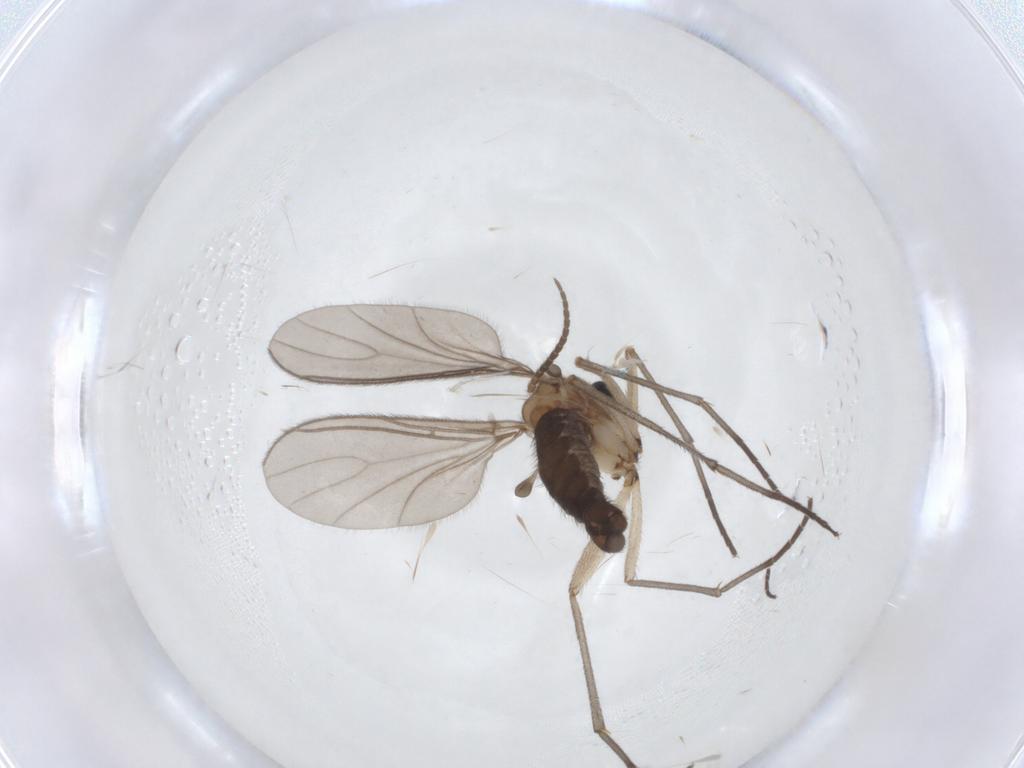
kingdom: Animalia
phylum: Arthropoda
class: Insecta
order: Diptera
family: Sciaridae
